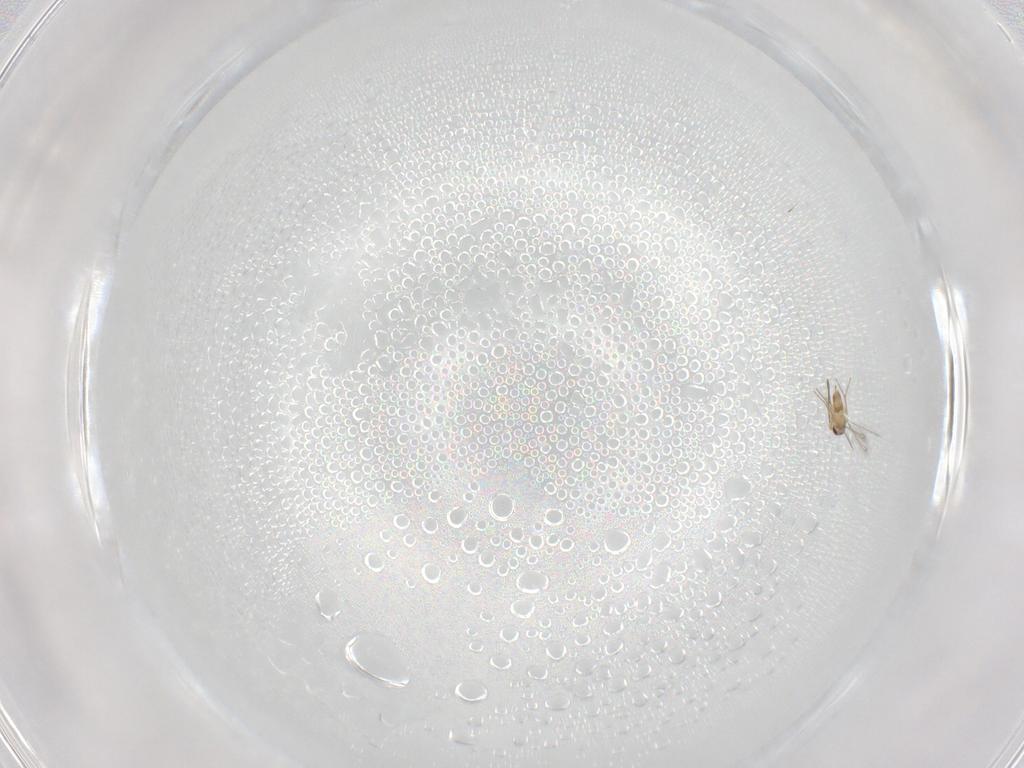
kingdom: Animalia
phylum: Arthropoda
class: Insecta
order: Hymenoptera
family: Mymaridae
